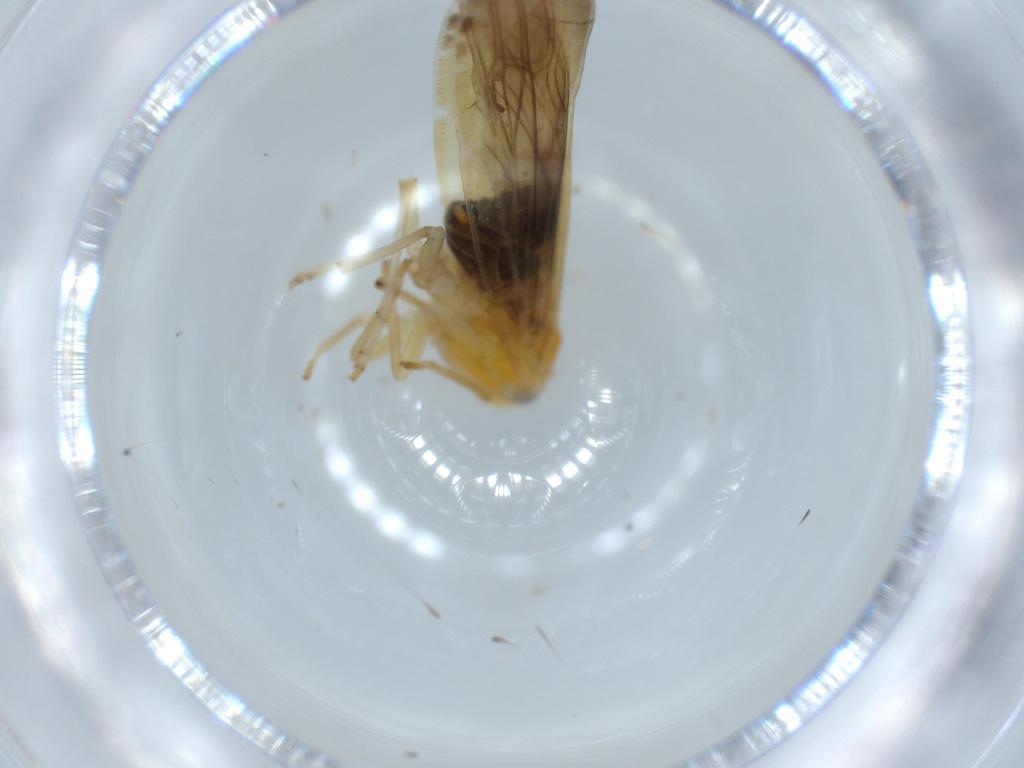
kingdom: Animalia
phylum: Arthropoda
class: Insecta
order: Hemiptera
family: Derbidae
